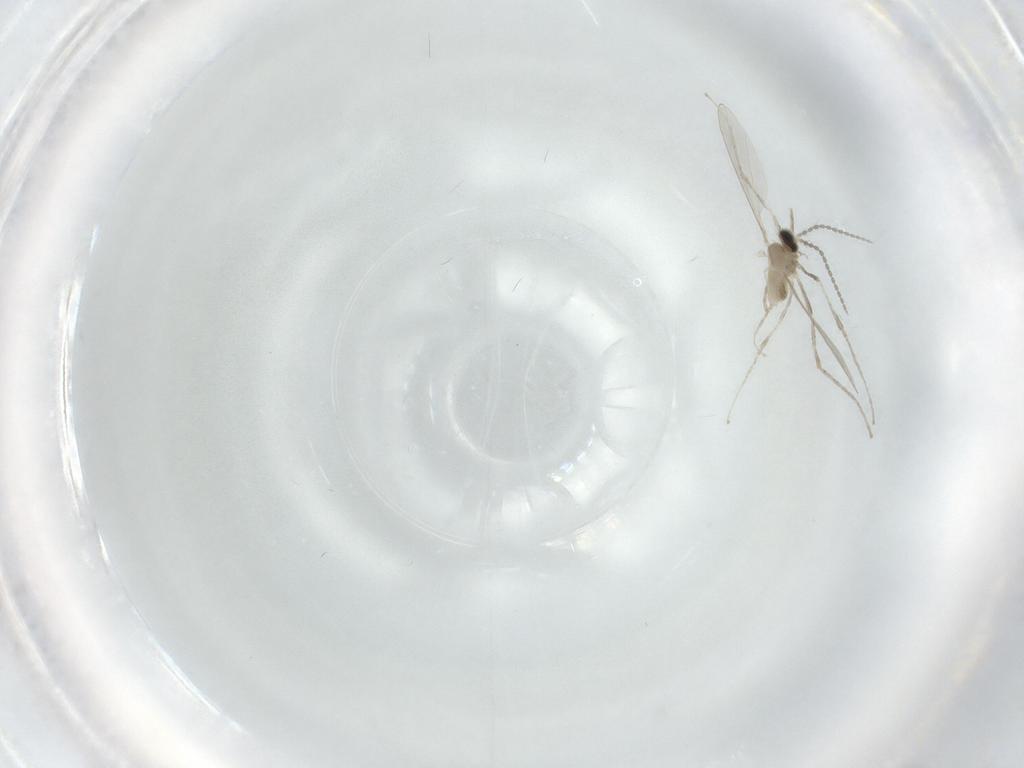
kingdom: Animalia
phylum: Arthropoda
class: Insecta
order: Diptera
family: Cecidomyiidae
